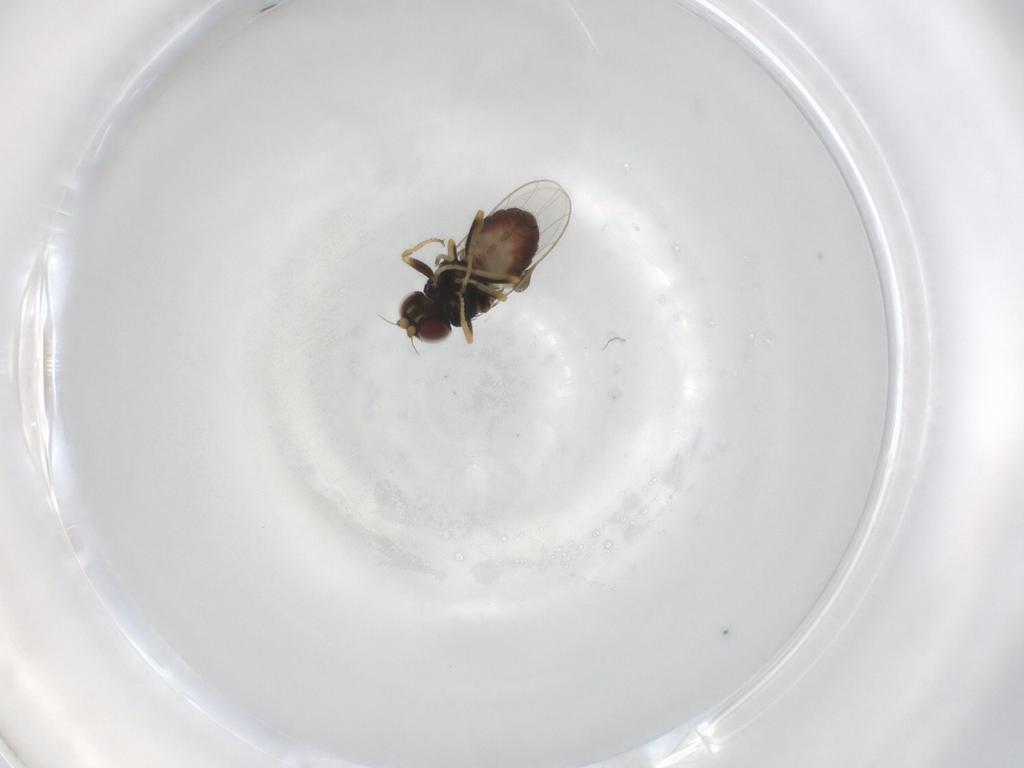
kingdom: Animalia
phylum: Arthropoda
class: Insecta
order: Diptera
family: Chloropidae
